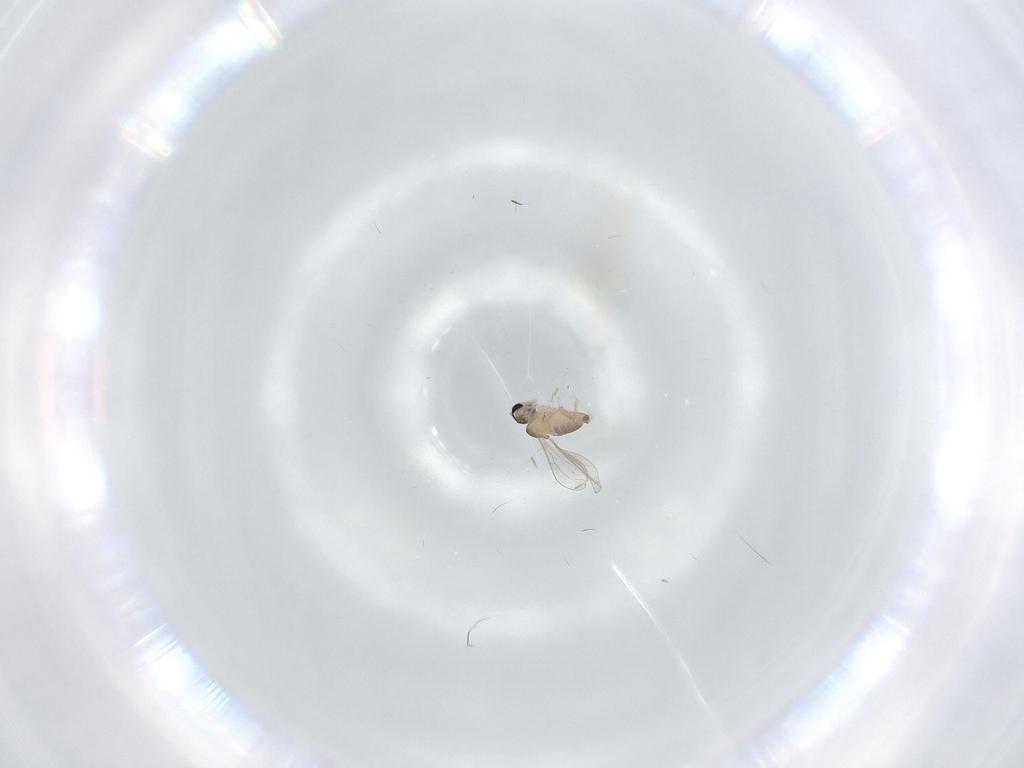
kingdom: Animalia
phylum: Arthropoda
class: Insecta
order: Diptera
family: Chironomidae
